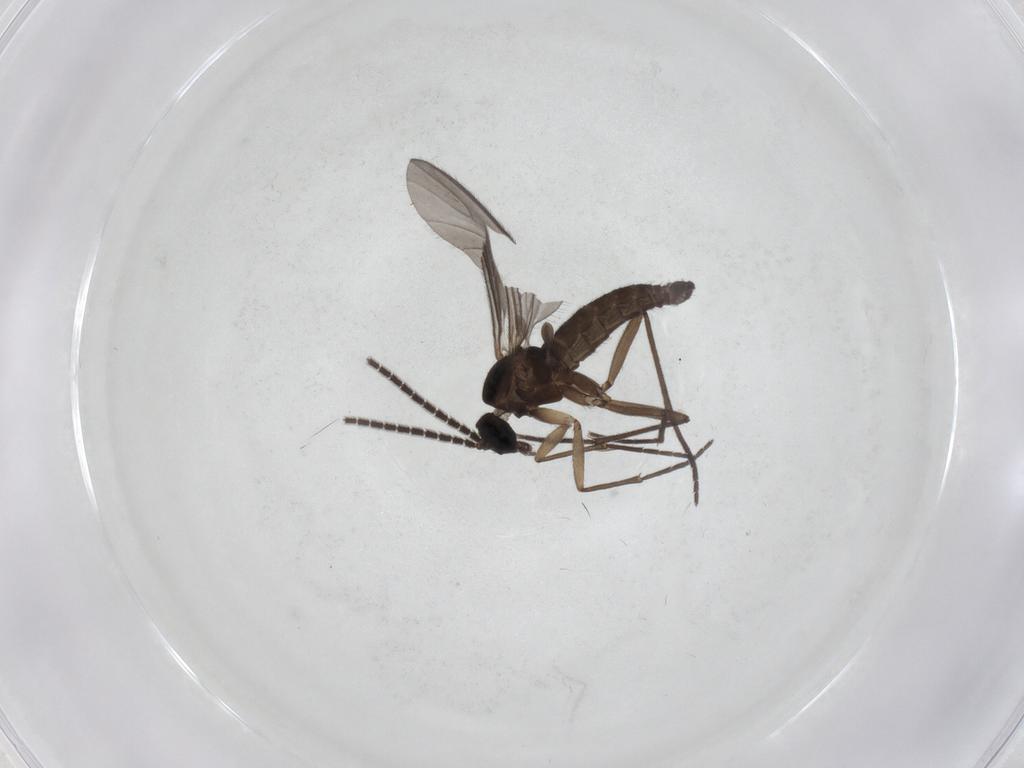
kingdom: Animalia
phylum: Arthropoda
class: Insecta
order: Diptera
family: Sciaridae
